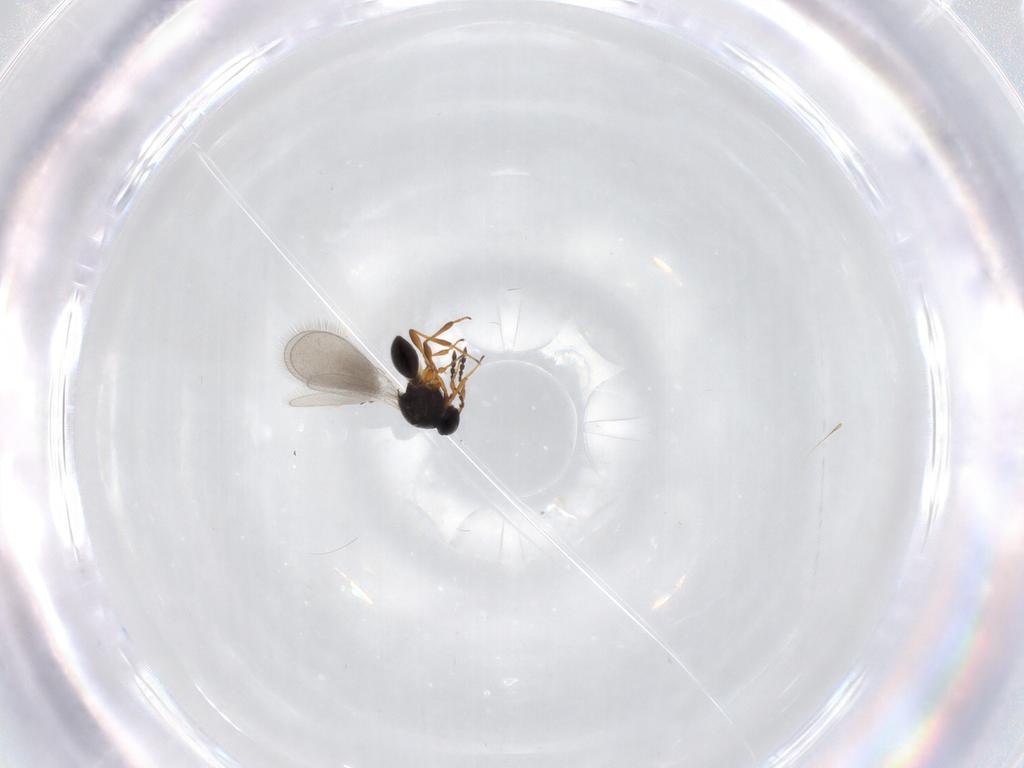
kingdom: Animalia
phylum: Arthropoda
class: Insecta
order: Hymenoptera
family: Platygastridae
